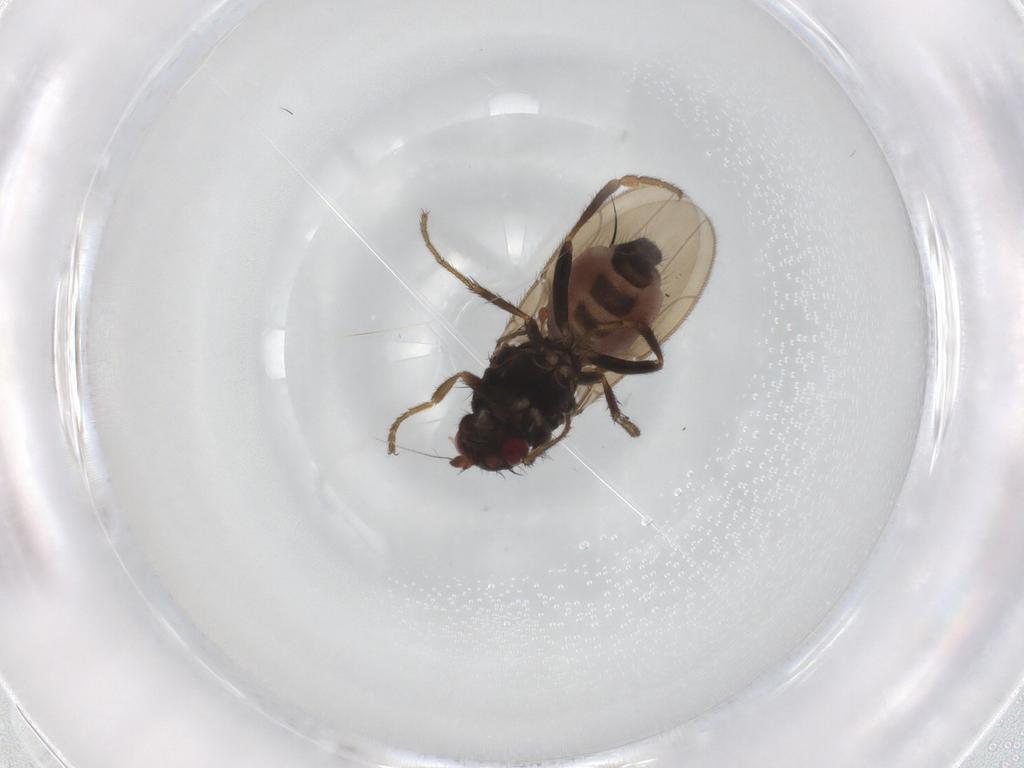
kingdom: Animalia
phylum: Arthropoda
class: Insecta
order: Diptera
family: Sphaeroceridae
